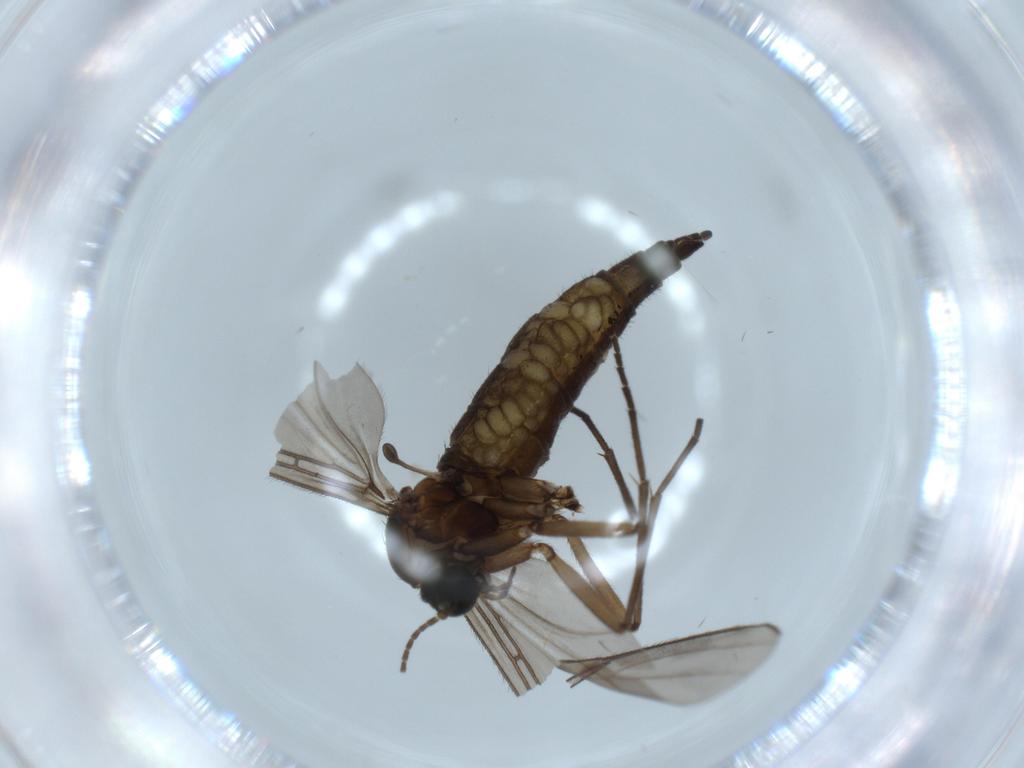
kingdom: Animalia
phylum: Arthropoda
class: Insecta
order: Diptera
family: Sciaridae
